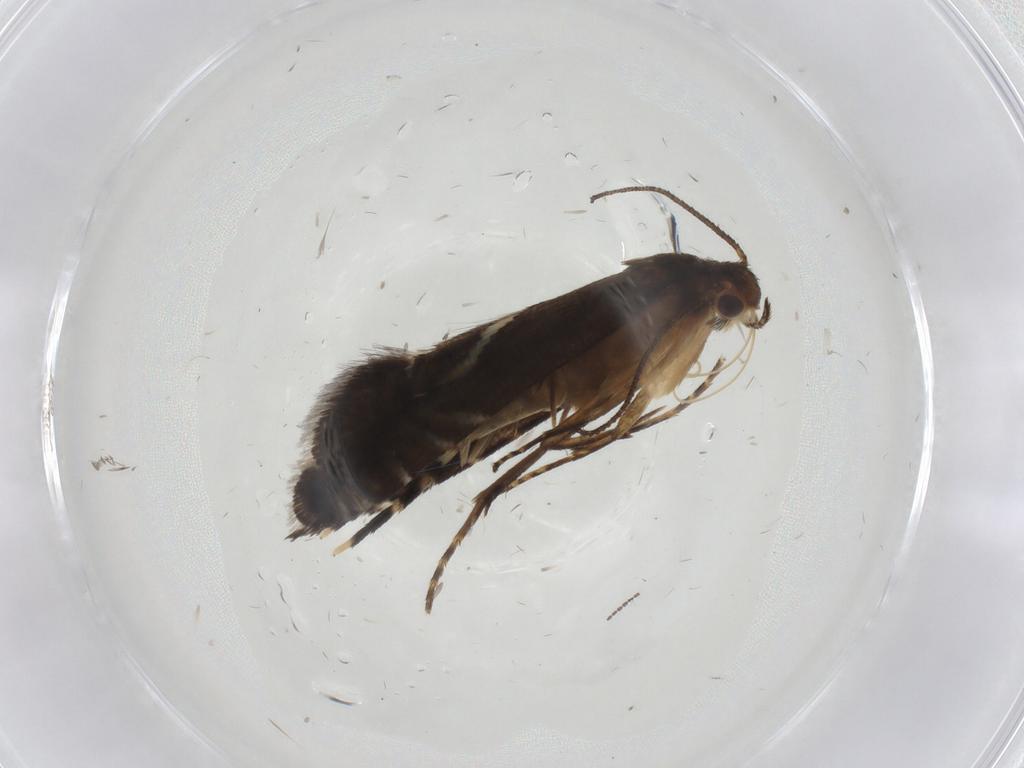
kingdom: Animalia
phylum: Arthropoda
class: Insecta
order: Lepidoptera
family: Glyphipterigidae
